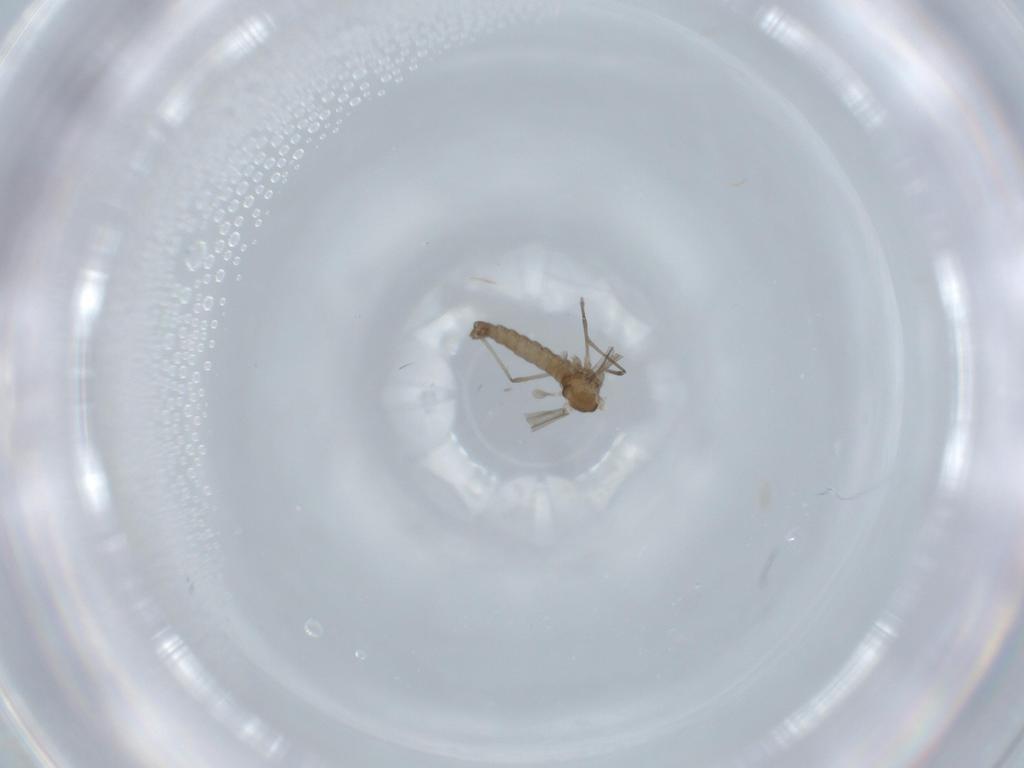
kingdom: Animalia
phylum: Arthropoda
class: Insecta
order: Diptera
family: Cecidomyiidae
